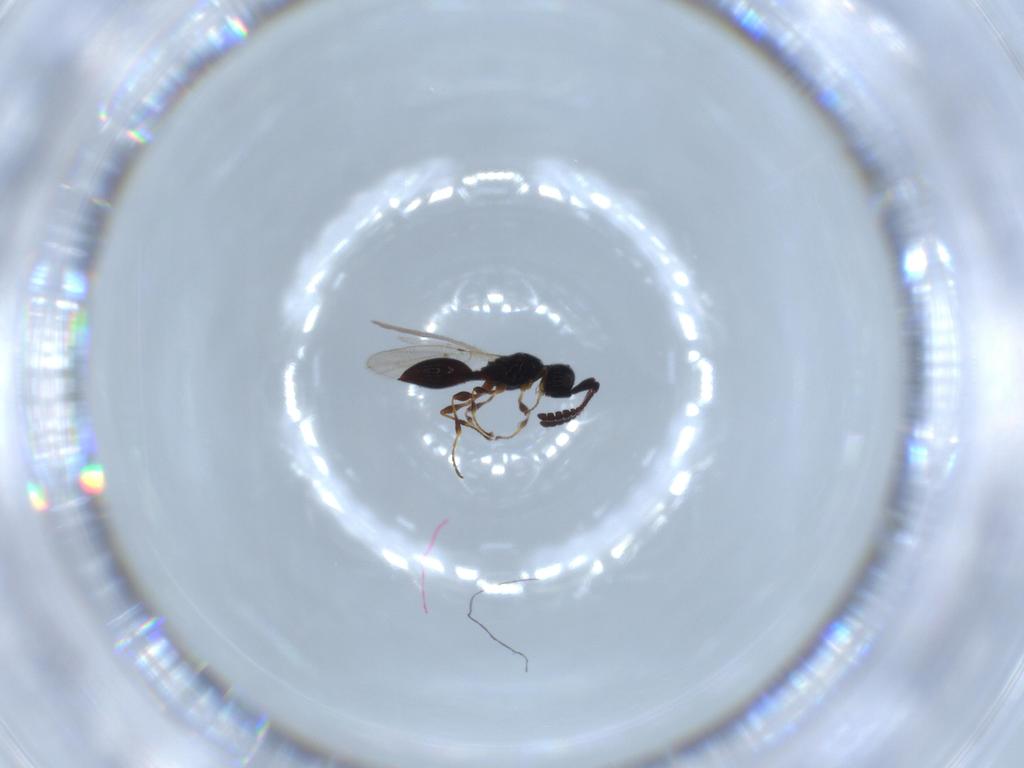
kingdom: Animalia
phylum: Arthropoda
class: Insecta
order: Hymenoptera
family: Diapriidae
